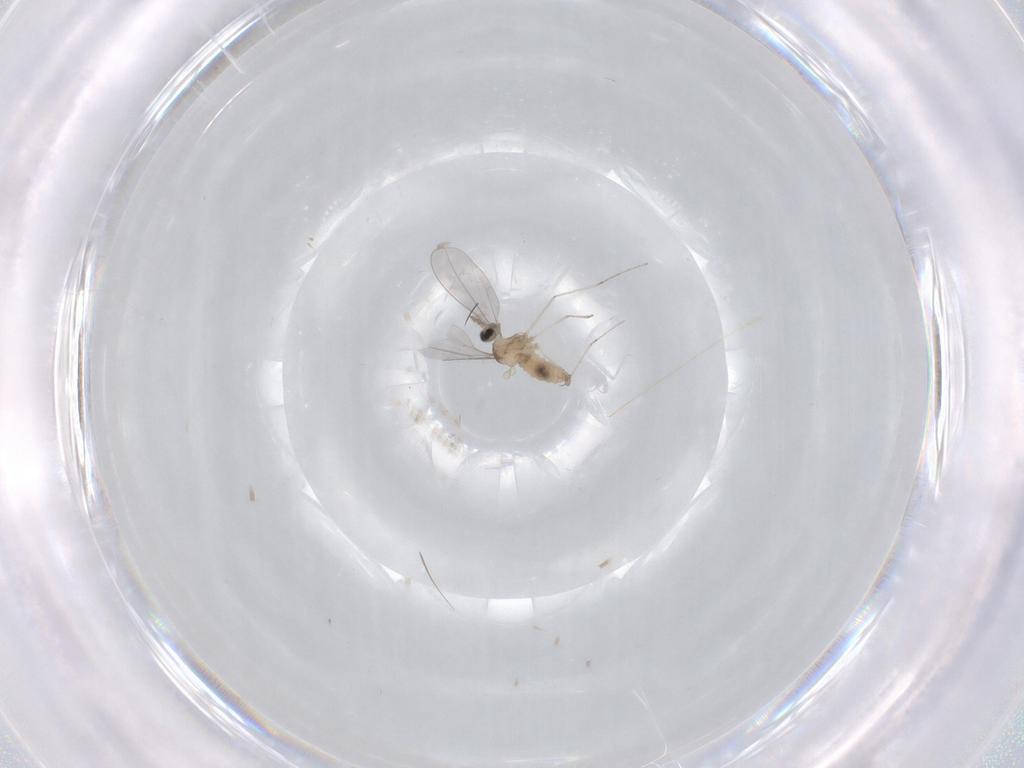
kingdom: Animalia
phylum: Arthropoda
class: Insecta
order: Diptera
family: Cecidomyiidae
